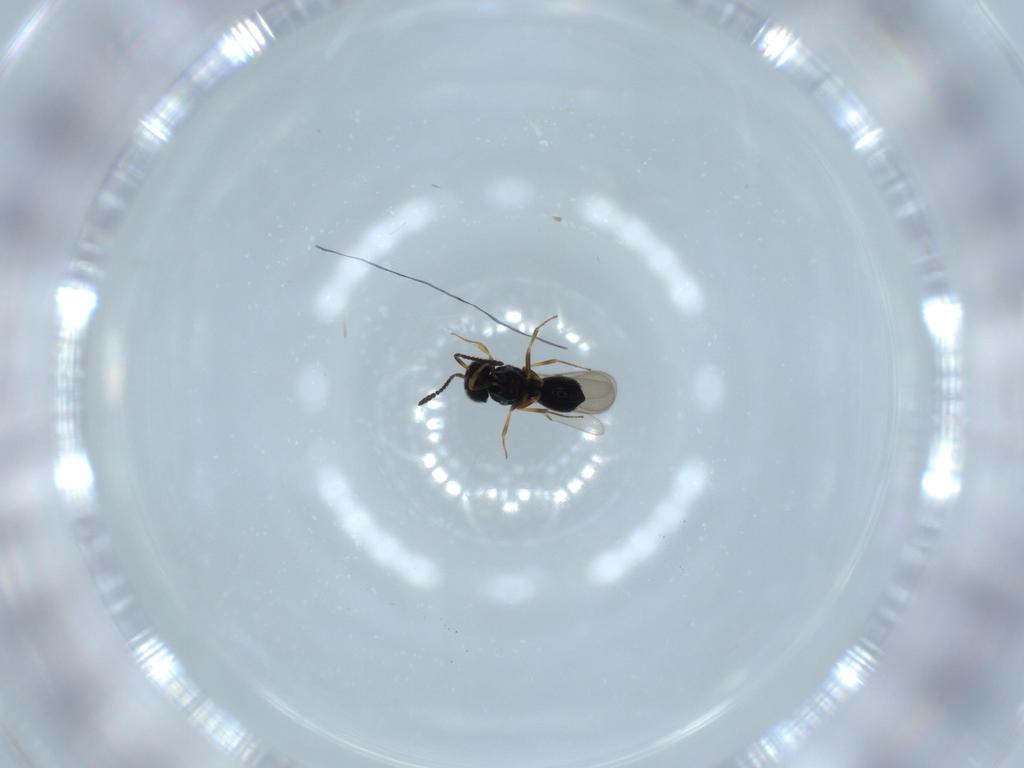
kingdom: Animalia
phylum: Arthropoda
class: Insecta
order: Hymenoptera
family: Scelionidae
